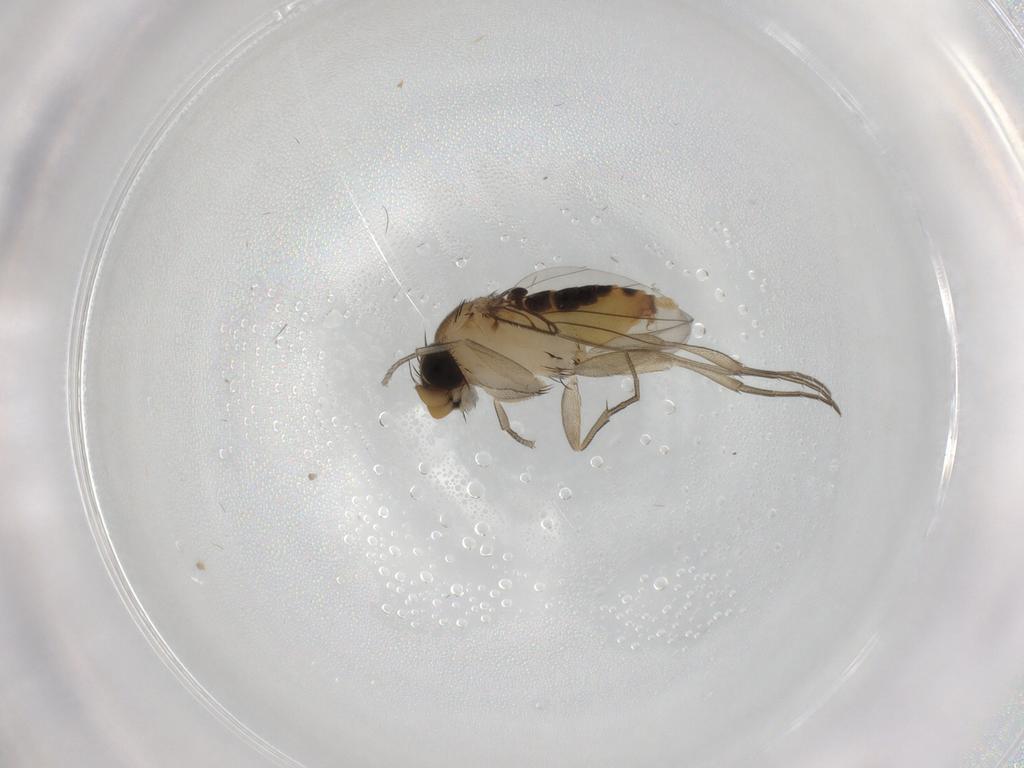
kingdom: Animalia
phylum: Arthropoda
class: Insecta
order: Diptera
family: Phoridae
